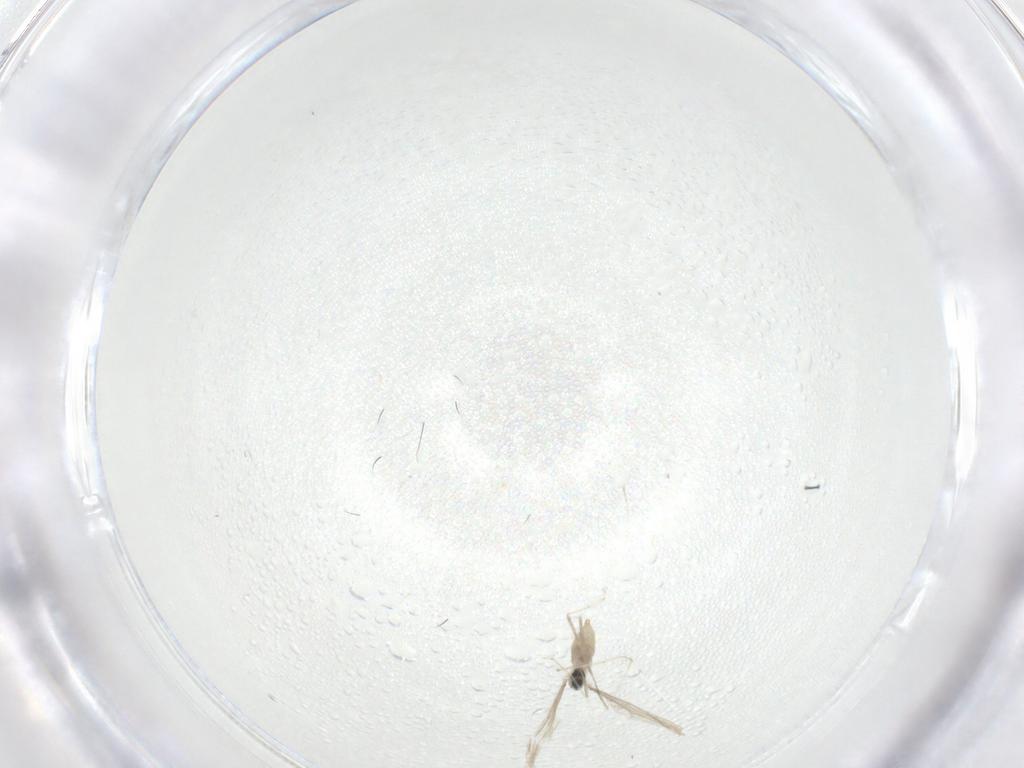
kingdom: Animalia
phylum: Arthropoda
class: Insecta
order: Diptera
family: Cecidomyiidae
